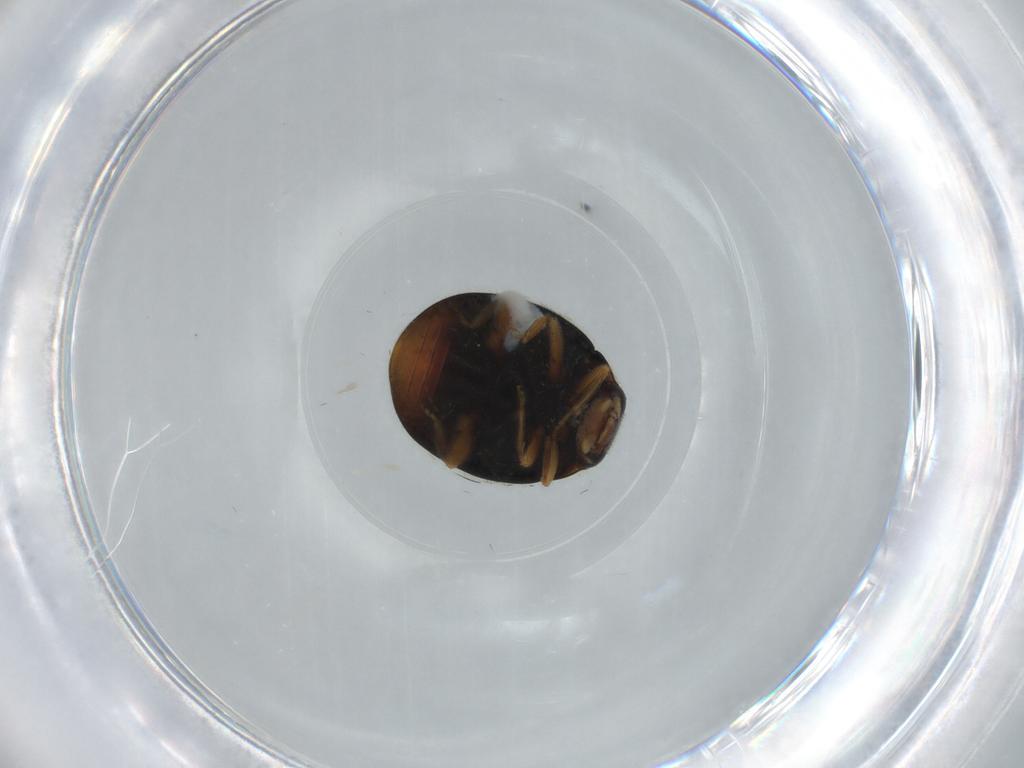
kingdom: Animalia
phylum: Arthropoda
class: Insecta
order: Coleoptera
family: Coccinellidae
